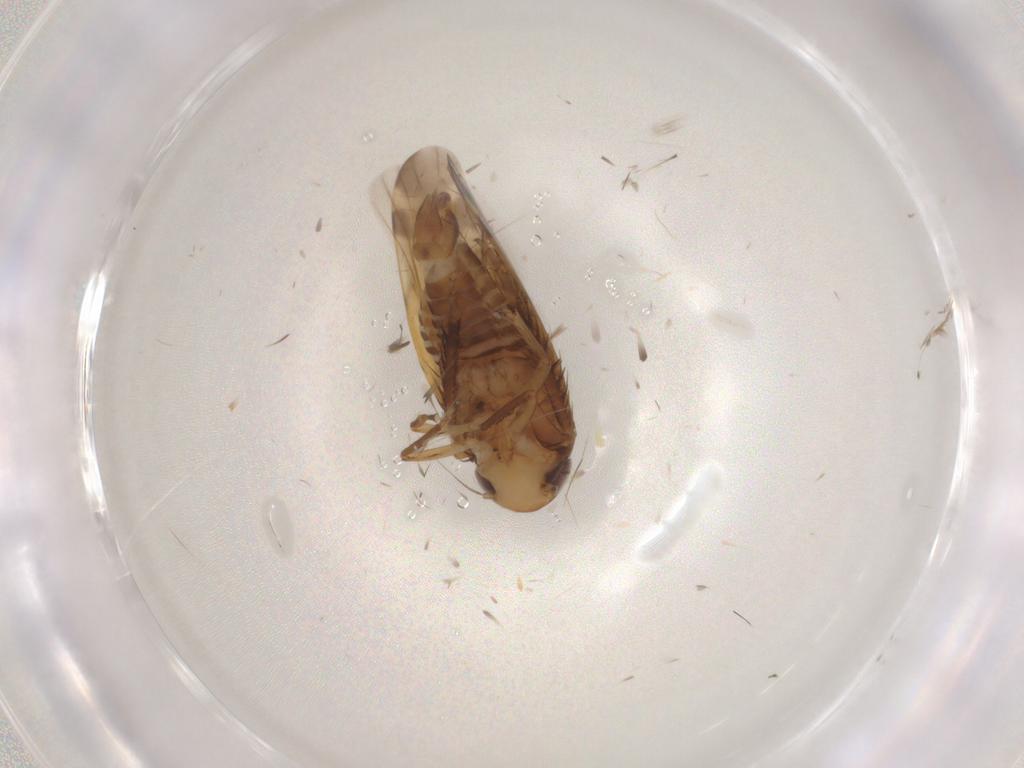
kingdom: Animalia
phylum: Arthropoda
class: Insecta
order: Hemiptera
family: Cicadellidae
